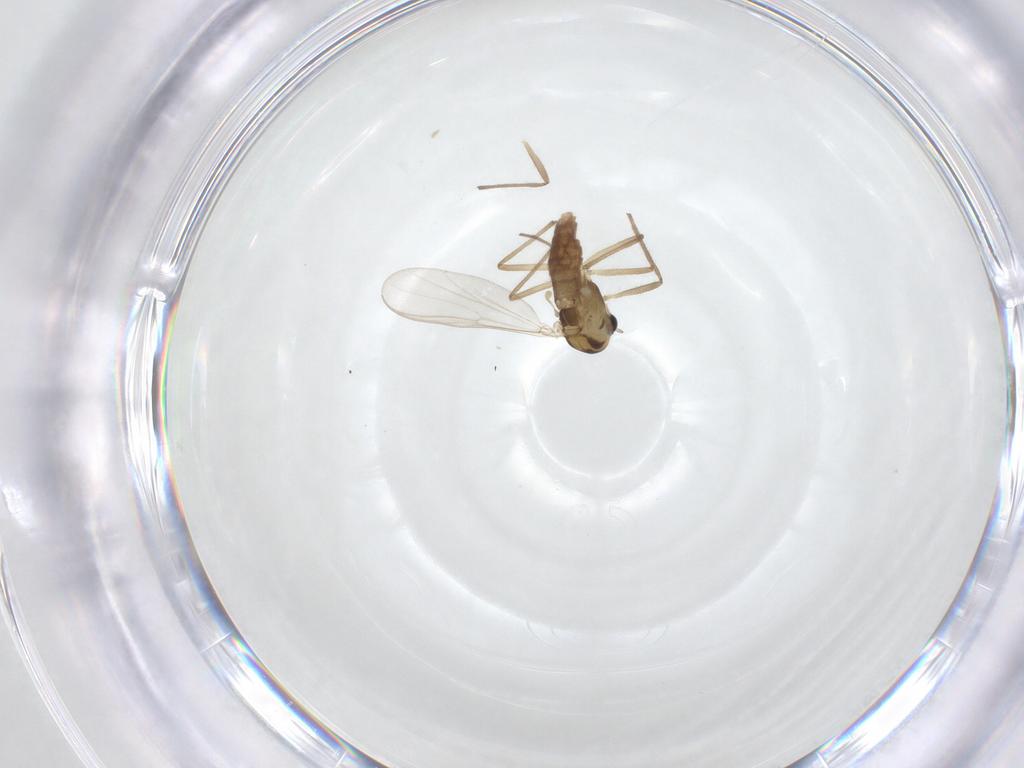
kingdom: Animalia
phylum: Arthropoda
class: Insecta
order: Diptera
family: Chironomidae
